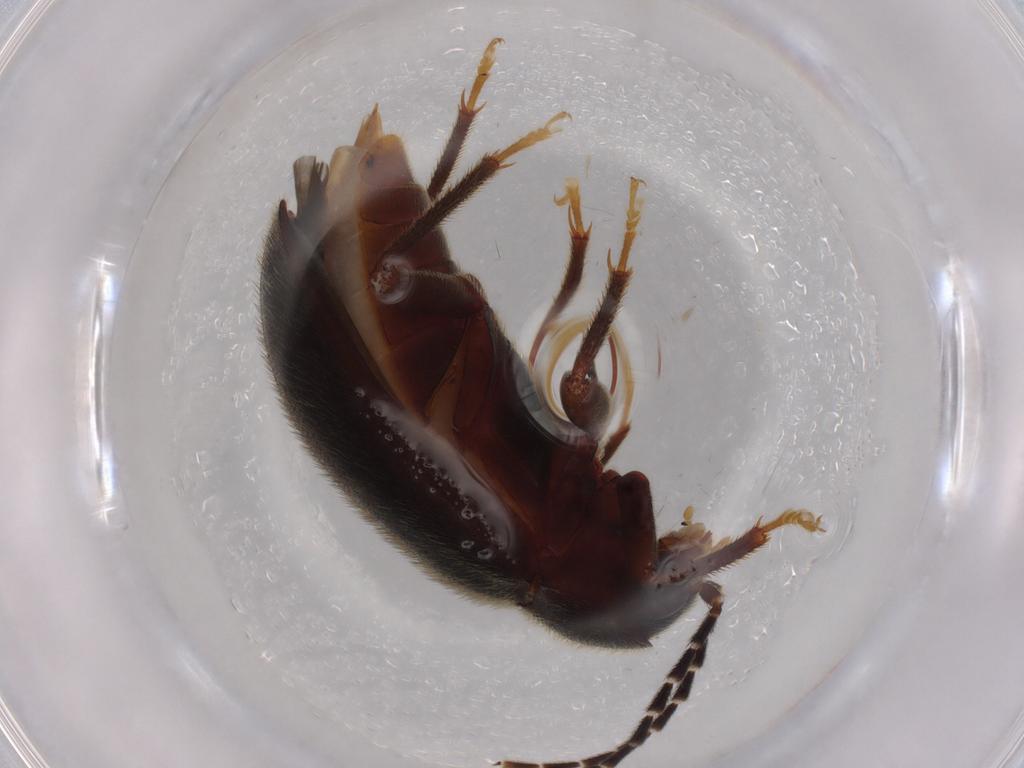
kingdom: Animalia
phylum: Arthropoda
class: Insecta
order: Coleoptera
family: Ptilodactylidae
